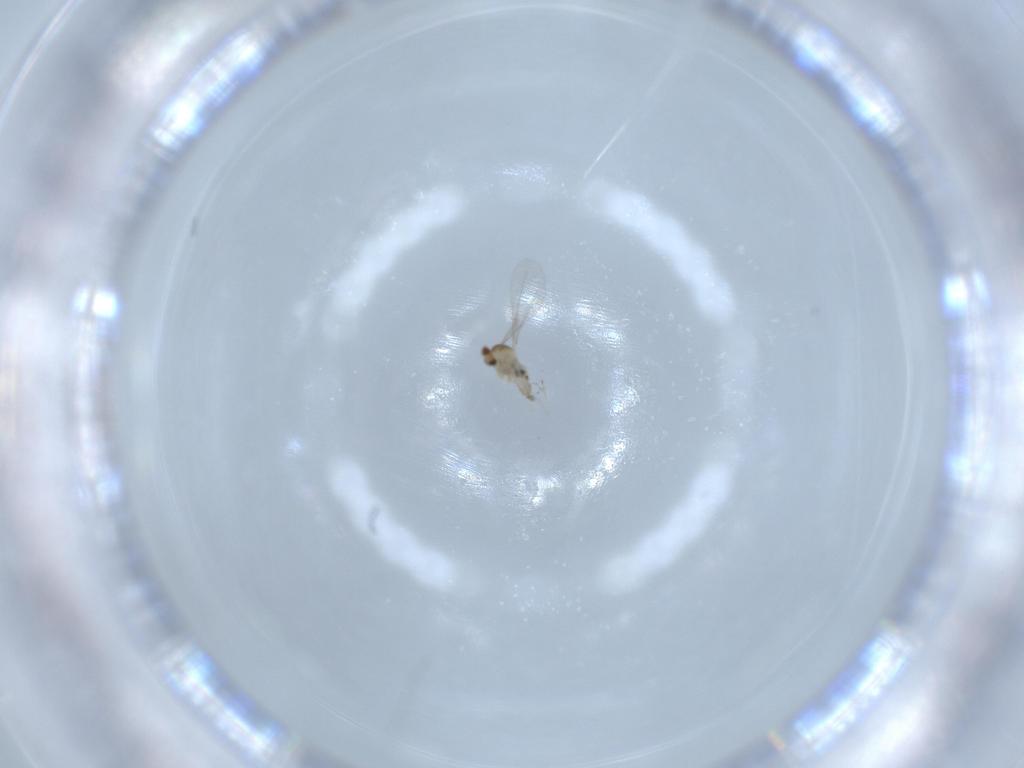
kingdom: Animalia
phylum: Arthropoda
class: Insecta
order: Diptera
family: Cecidomyiidae
